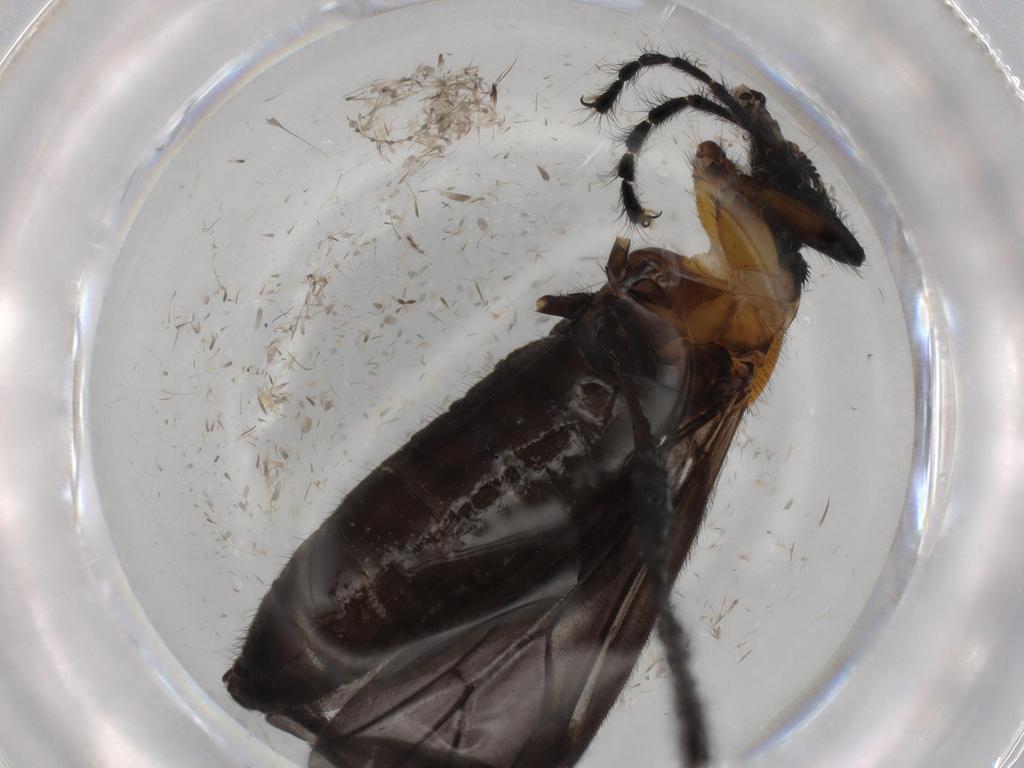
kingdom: Animalia
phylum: Arthropoda
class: Insecta
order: Diptera
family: Bibionidae
